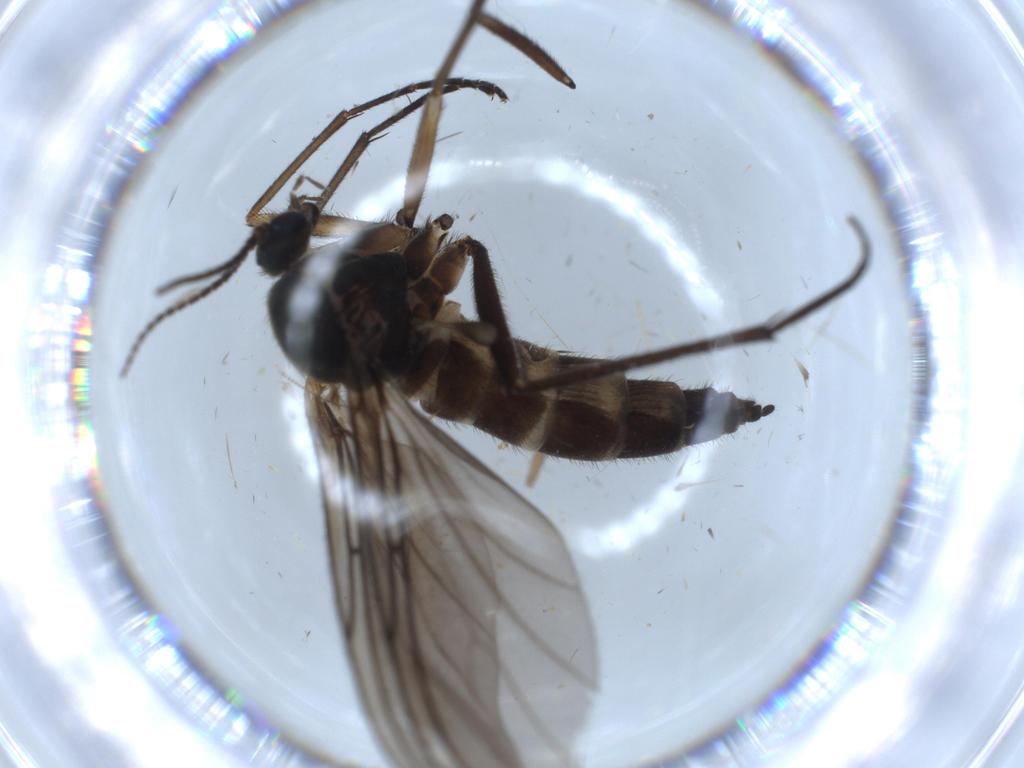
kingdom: Animalia
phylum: Arthropoda
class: Insecta
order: Diptera
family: Sciaridae
